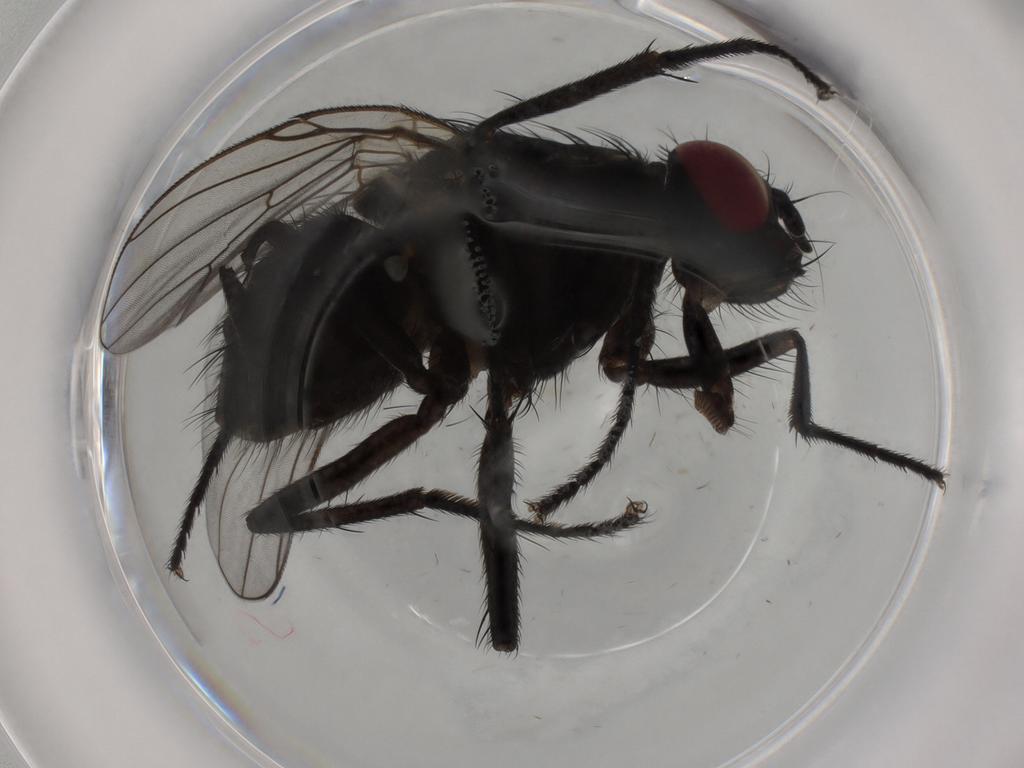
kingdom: Animalia
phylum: Arthropoda
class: Insecta
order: Diptera
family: Muscidae
